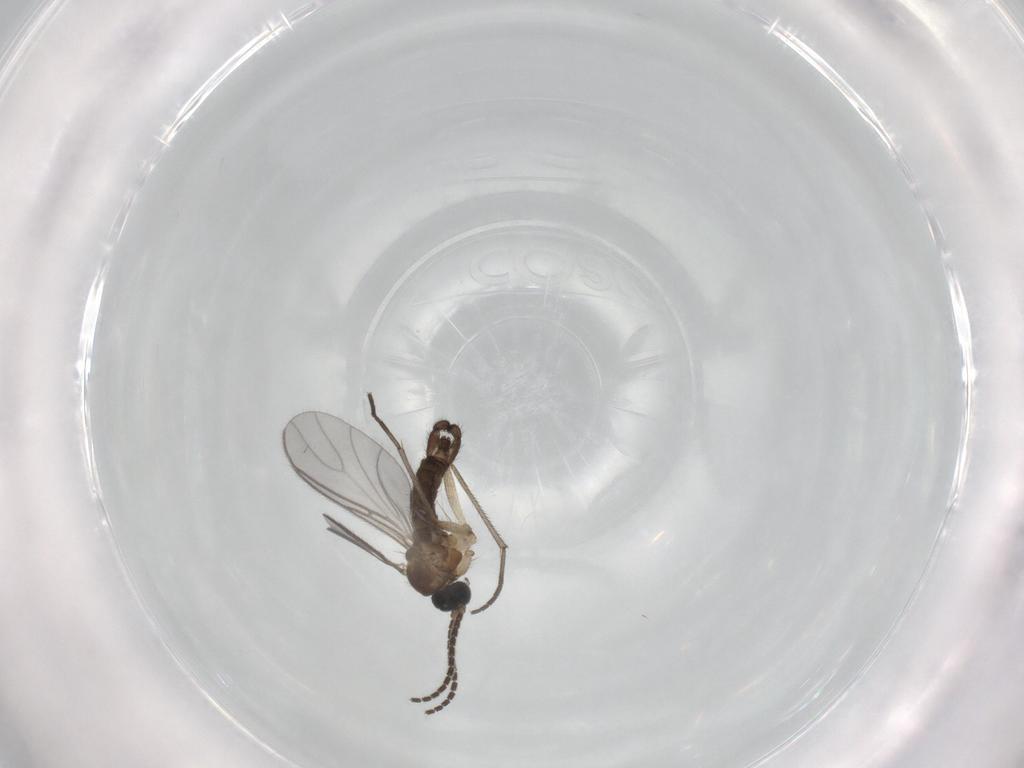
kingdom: Animalia
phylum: Arthropoda
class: Insecta
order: Diptera
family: Sciaridae
